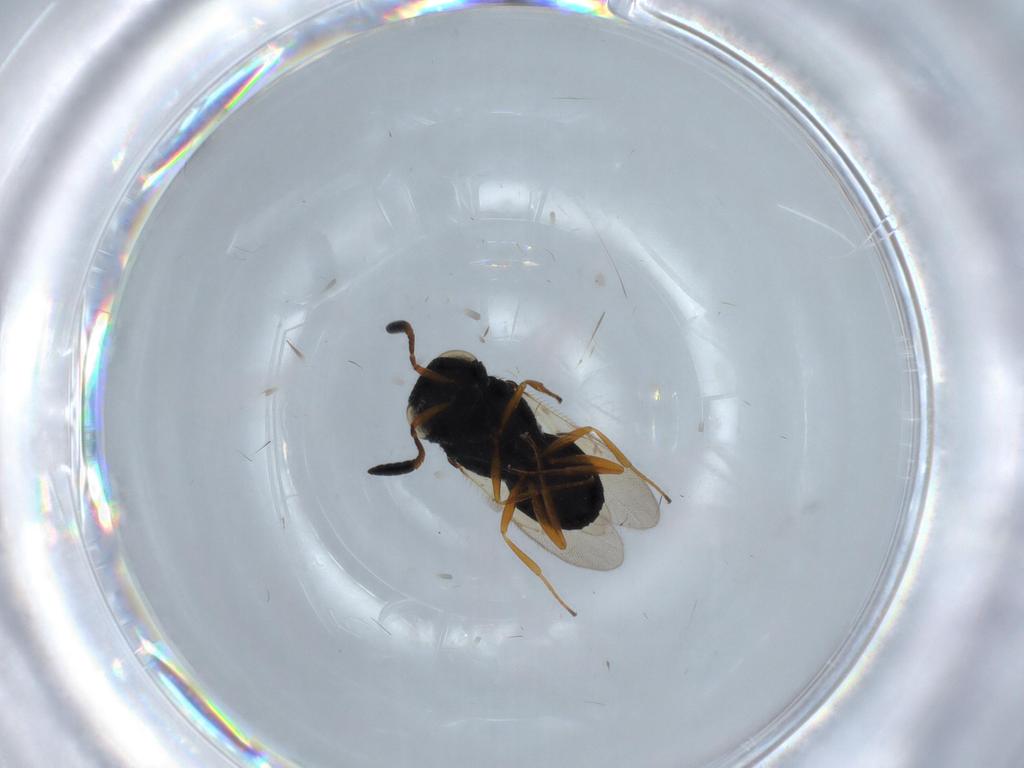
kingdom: Animalia
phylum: Arthropoda
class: Insecta
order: Hymenoptera
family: Scelionidae
